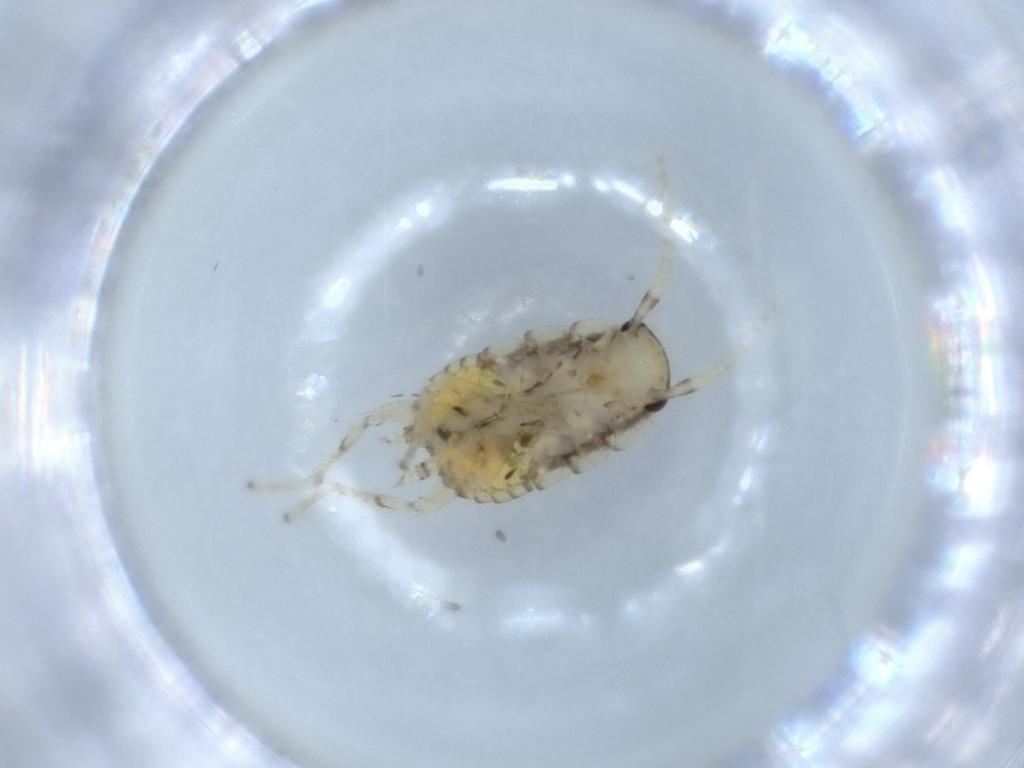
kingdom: Animalia
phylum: Arthropoda
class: Insecta
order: Blattodea
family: Ectobiidae
